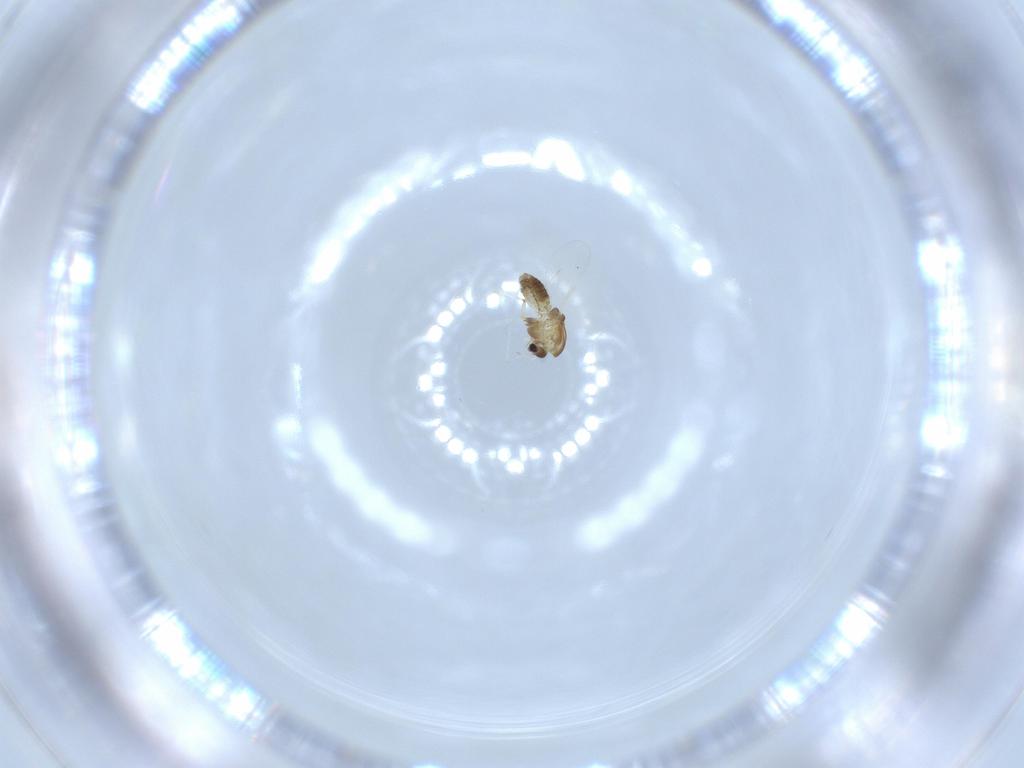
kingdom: Animalia
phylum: Arthropoda
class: Insecta
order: Diptera
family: Chironomidae
